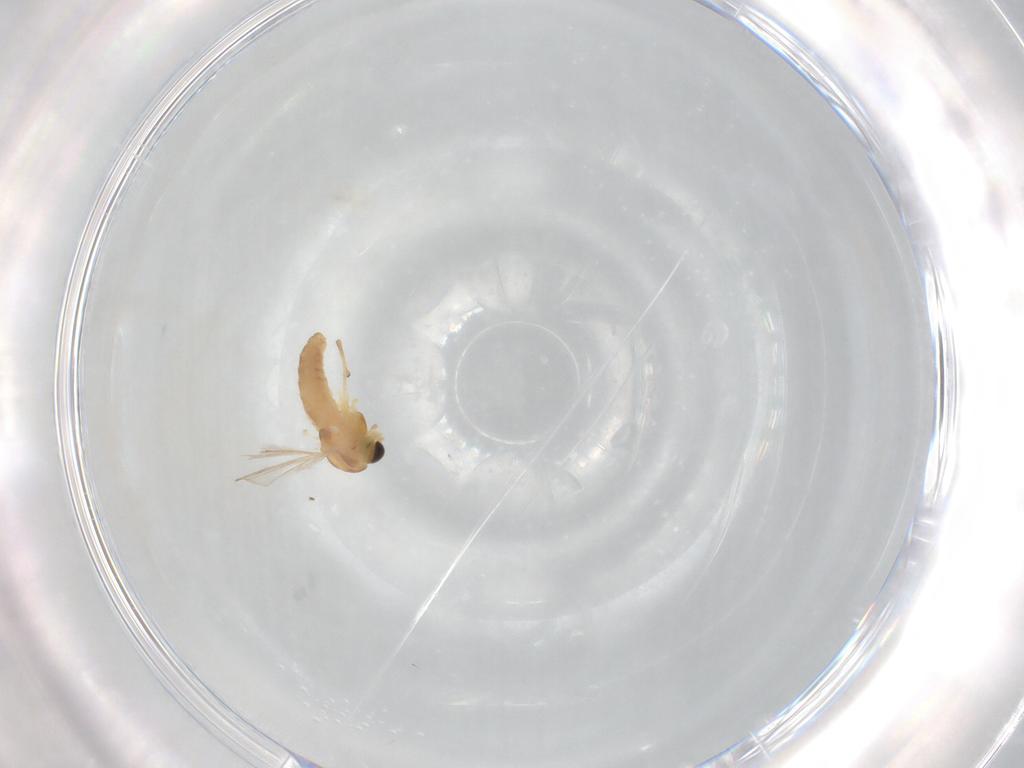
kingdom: Animalia
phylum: Arthropoda
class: Insecta
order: Diptera
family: Chironomidae
